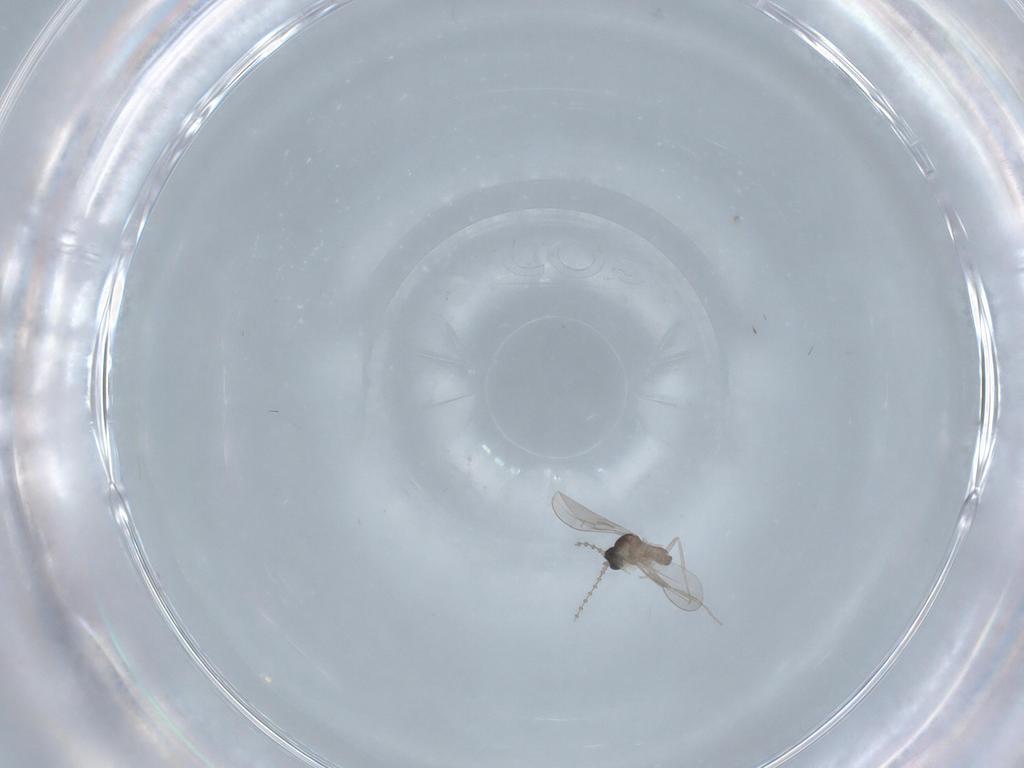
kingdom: Animalia
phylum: Arthropoda
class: Insecta
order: Diptera
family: Cecidomyiidae
